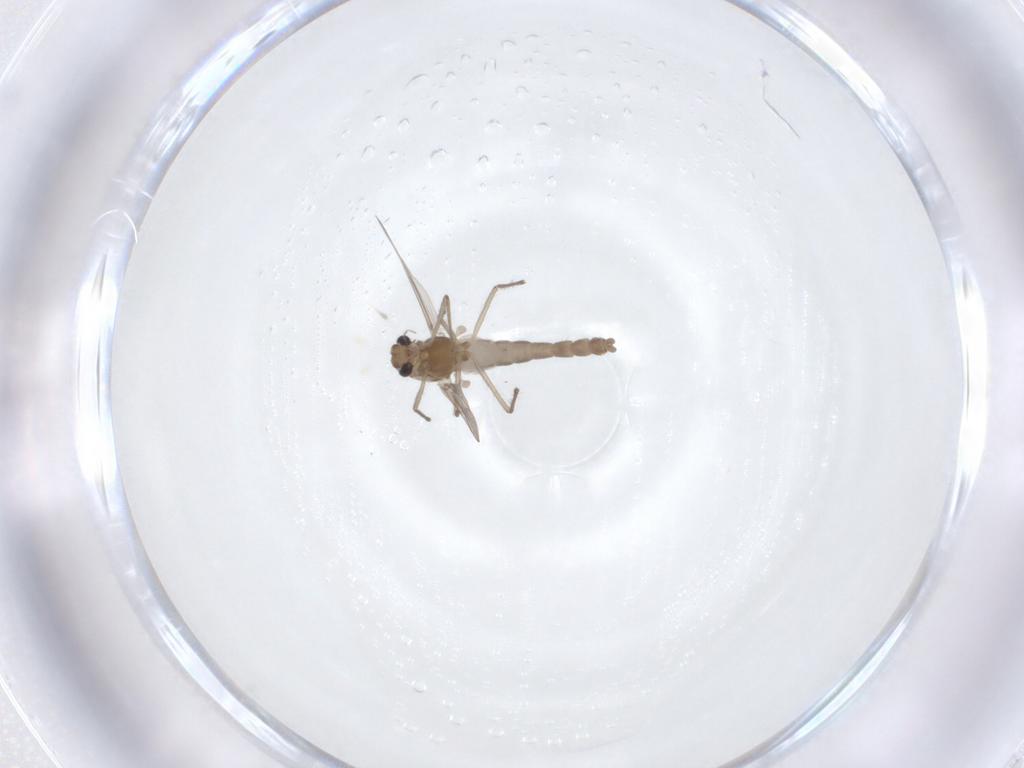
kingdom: Animalia
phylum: Arthropoda
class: Insecta
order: Diptera
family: Chironomidae
